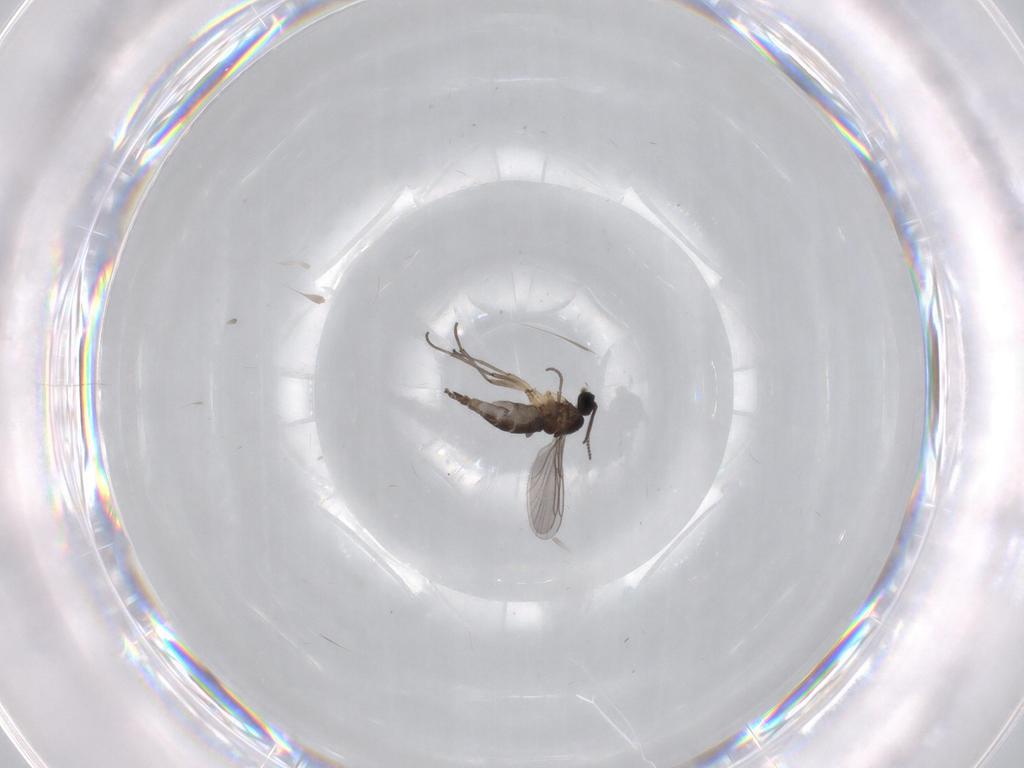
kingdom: Animalia
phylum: Arthropoda
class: Insecta
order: Diptera
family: Sciaridae
